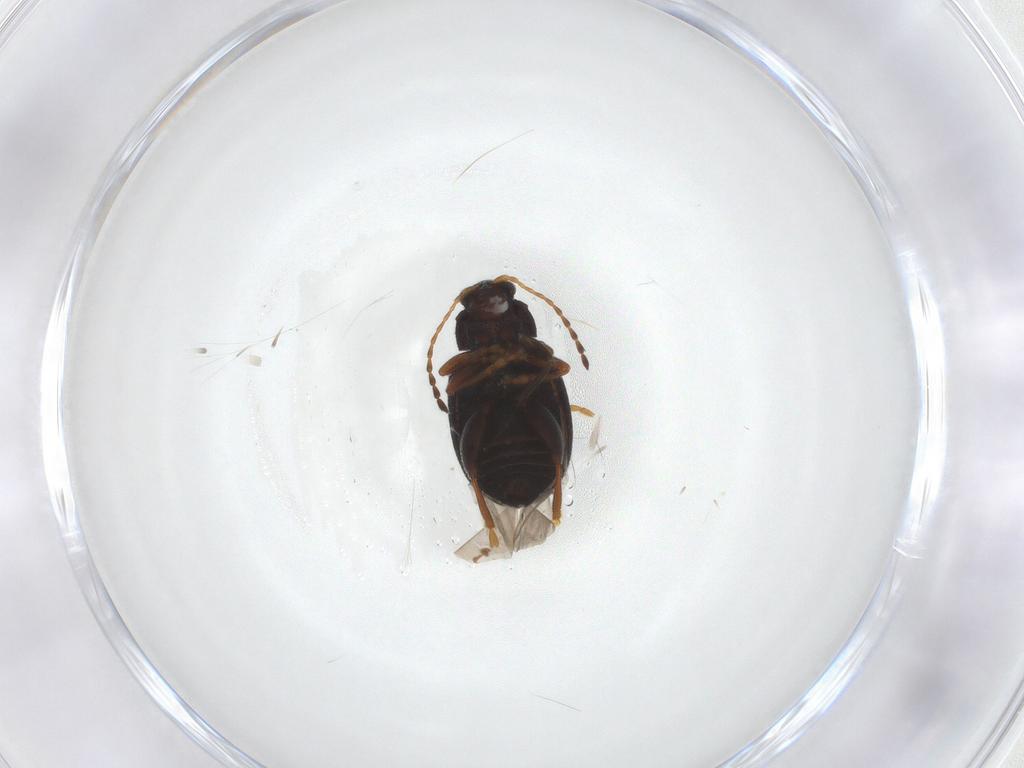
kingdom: Animalia
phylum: Arthropoda
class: Insecta
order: Coleoptera
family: Chrysomelidae
